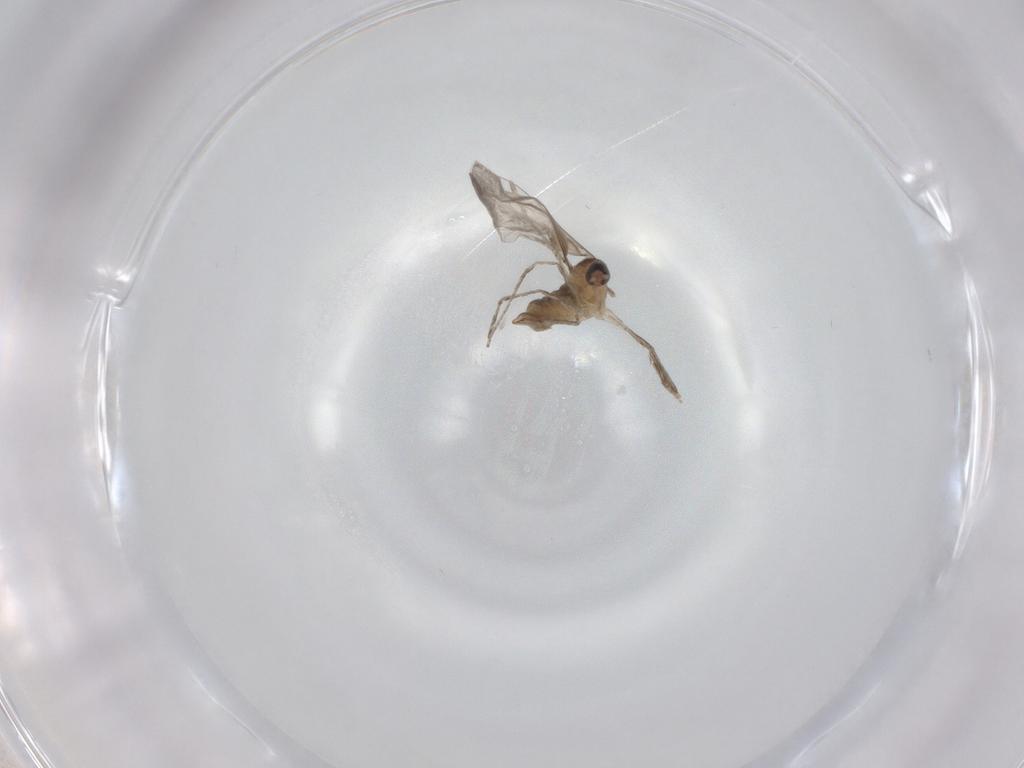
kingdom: Animalia
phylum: Arthropoda
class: Insecta
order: Diptera
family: Cecidomyiidae
